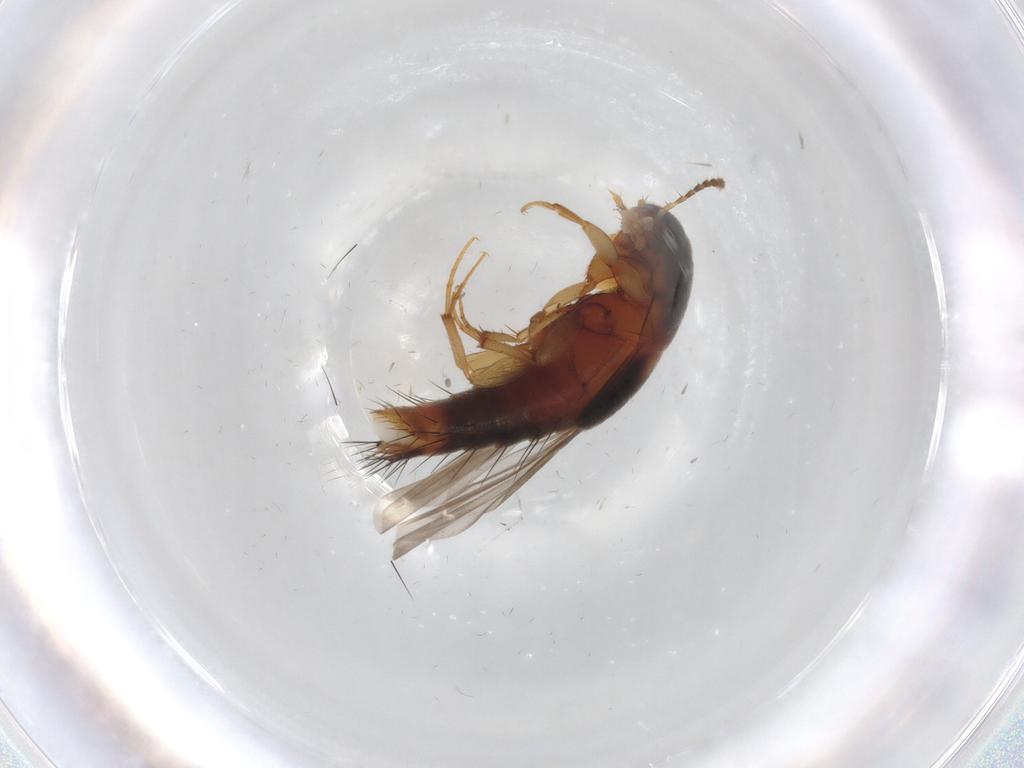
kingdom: Animalia
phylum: Arthropoda
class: Insecta
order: Coleoptera
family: Staphylinidae
